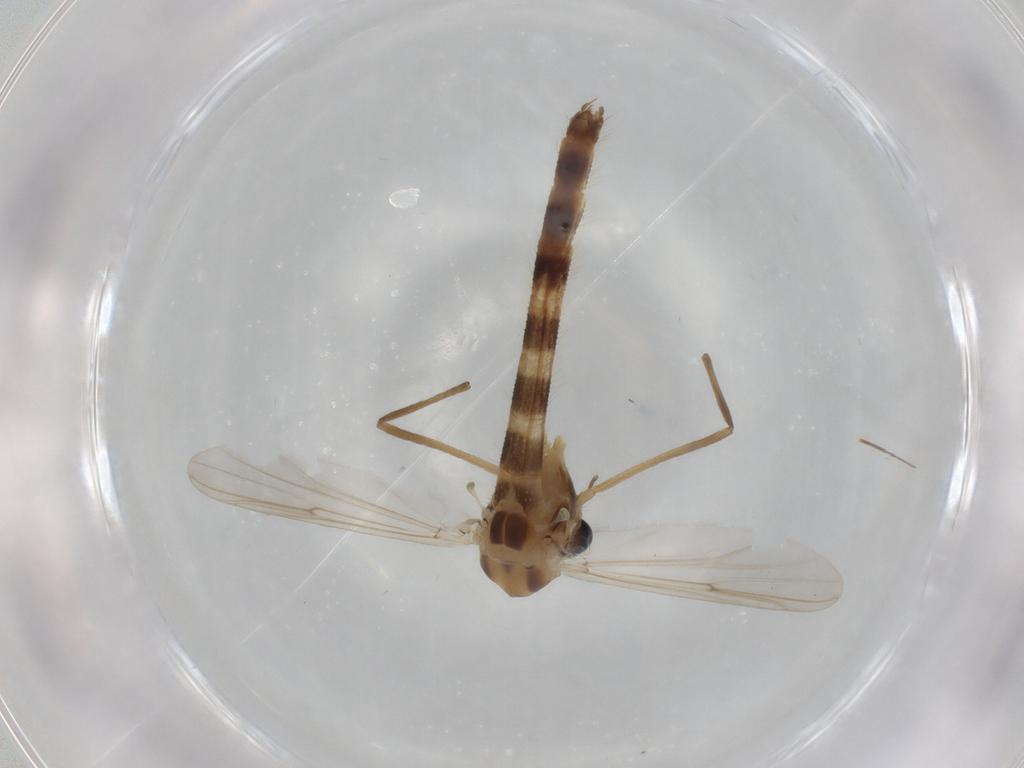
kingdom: Animalia
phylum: Arthropoda
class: Insecta
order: Diptera
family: Chironomidae
